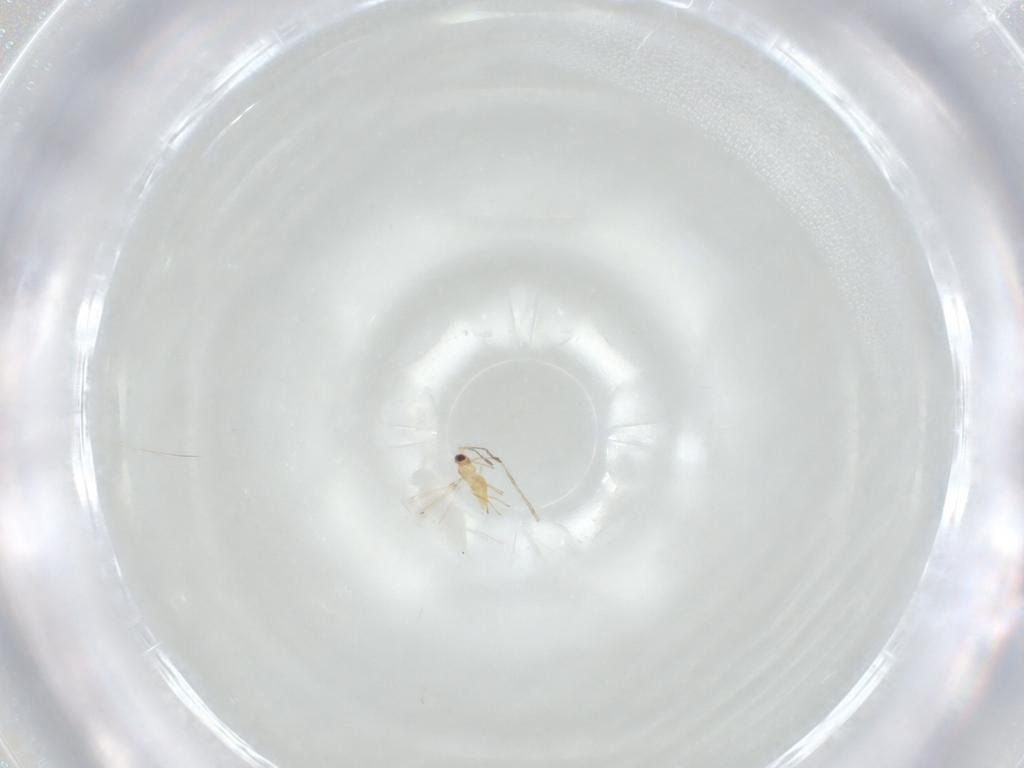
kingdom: Animalia
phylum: Arthropoda
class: Insecta
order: Hymenoptera
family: Mymaridae
